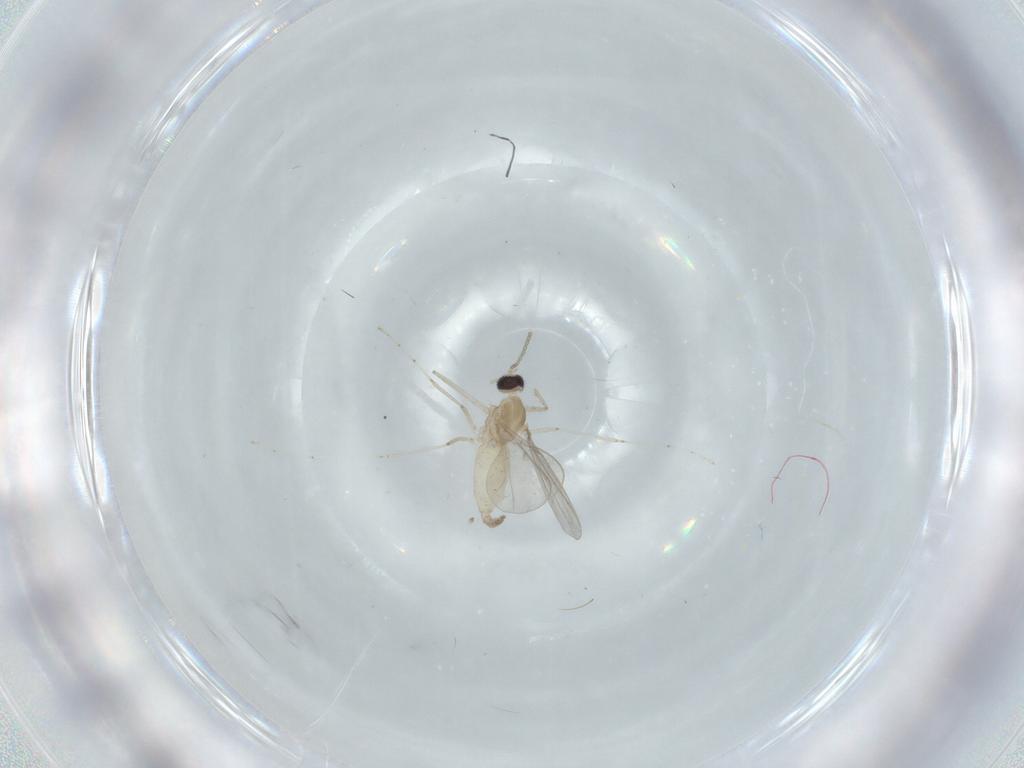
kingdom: Animalia
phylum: Arthropoda
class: Insecta
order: Diptera
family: Cecidomyiidae
